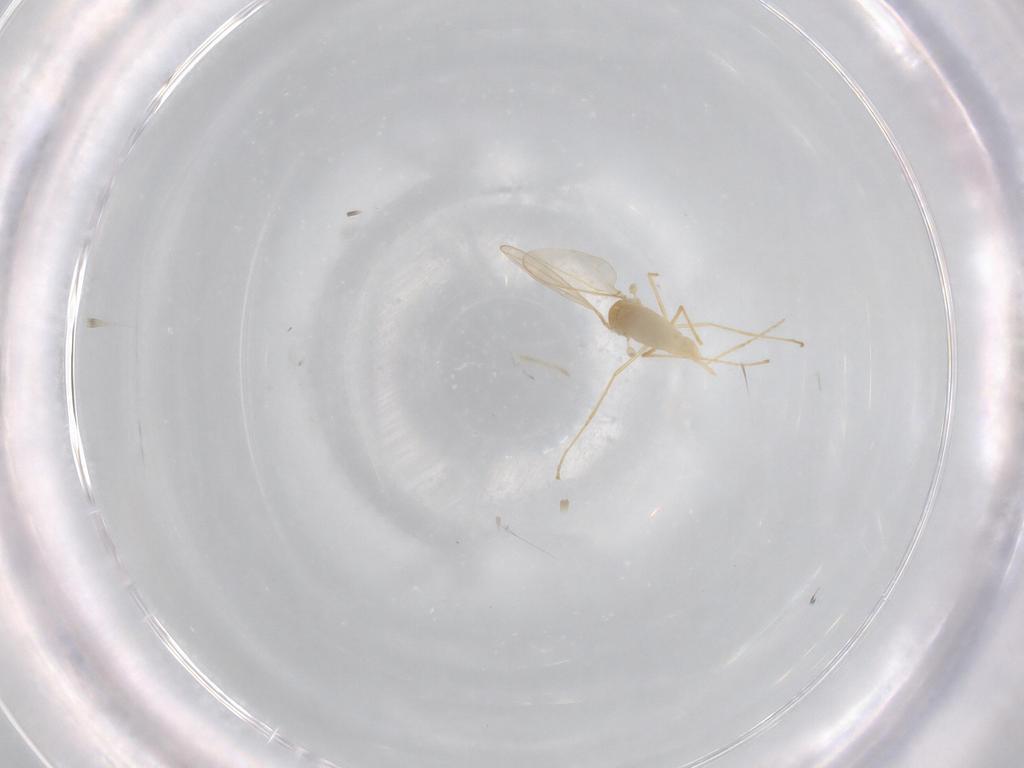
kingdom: Animalia
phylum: Arthropoda
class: Insecta
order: Diptera
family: Cecidomyiidae
